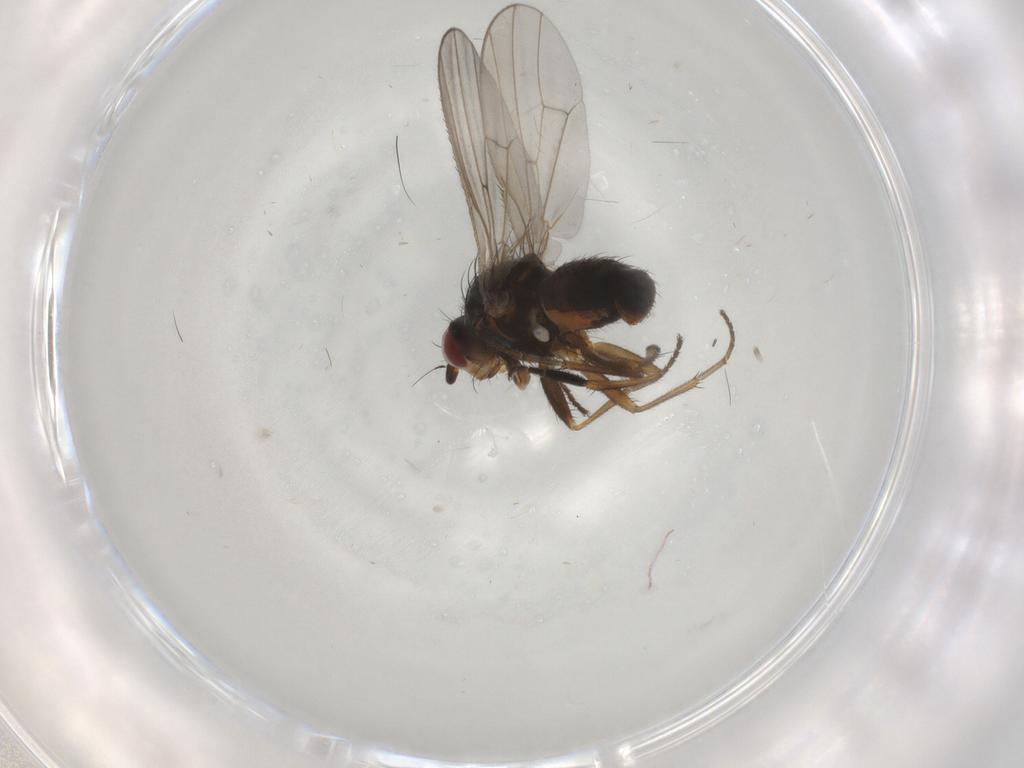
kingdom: Animalia
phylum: Arthropoda
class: Insecta
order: Diptera
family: Heleomyzidae
